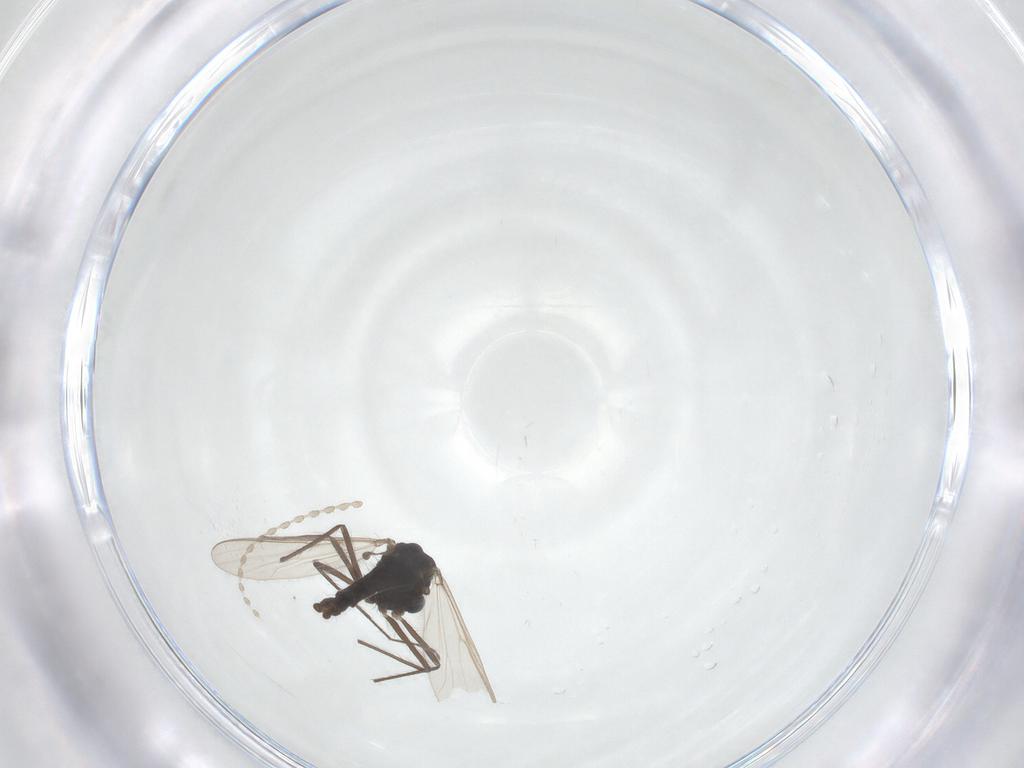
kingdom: Animalia
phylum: Arthropoda
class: Insecta
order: Diptera
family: Chironomidae
